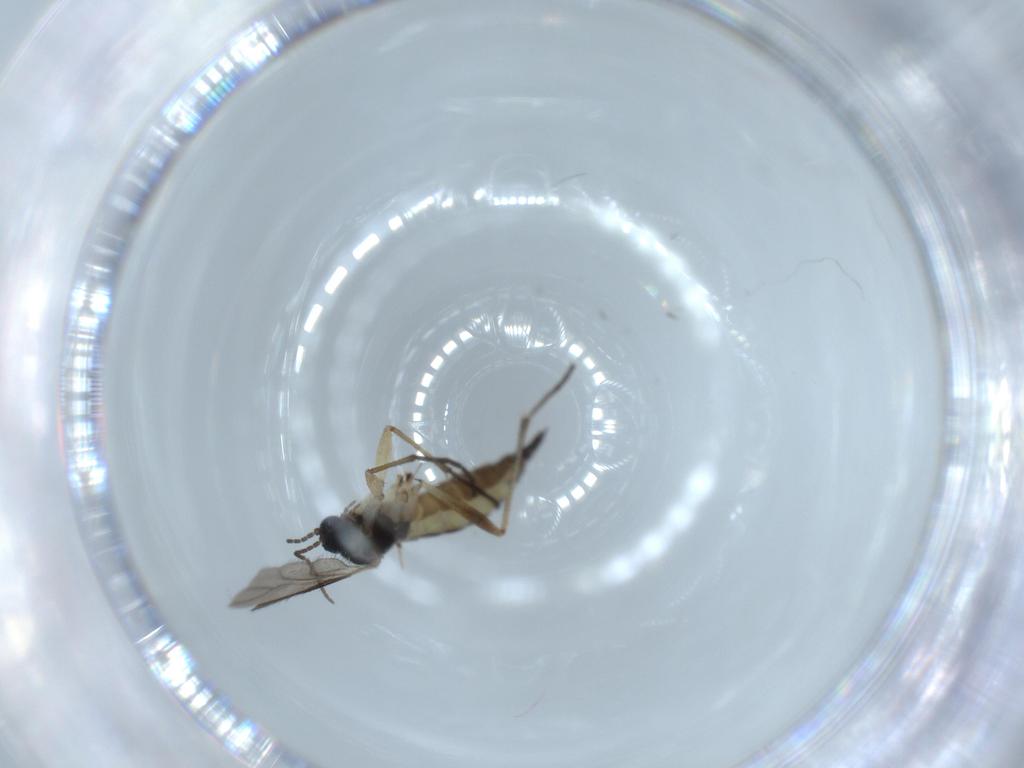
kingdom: Animalia
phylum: Arthropoda
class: Insecta
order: Diptera
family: Sciaridae
